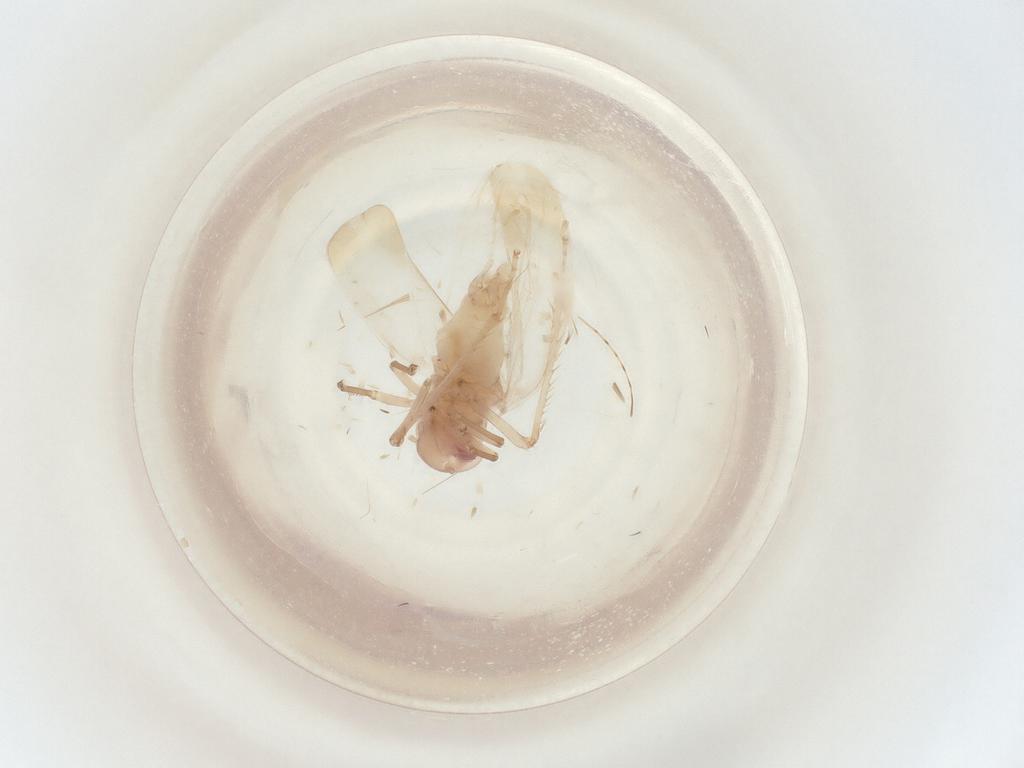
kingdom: Animalia
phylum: Arthropoda
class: Insecta
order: Hemiptera
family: Cicadellidae
